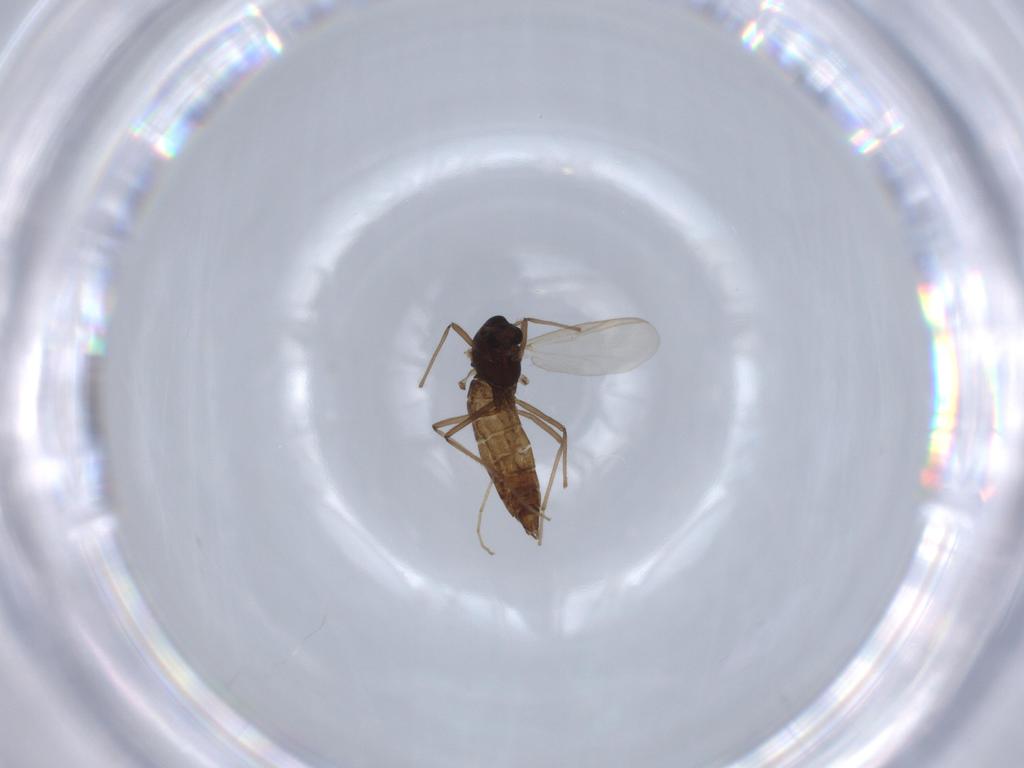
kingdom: Animalia
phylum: Arthropoda
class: Insecta
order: Diptera
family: Chironomidae
